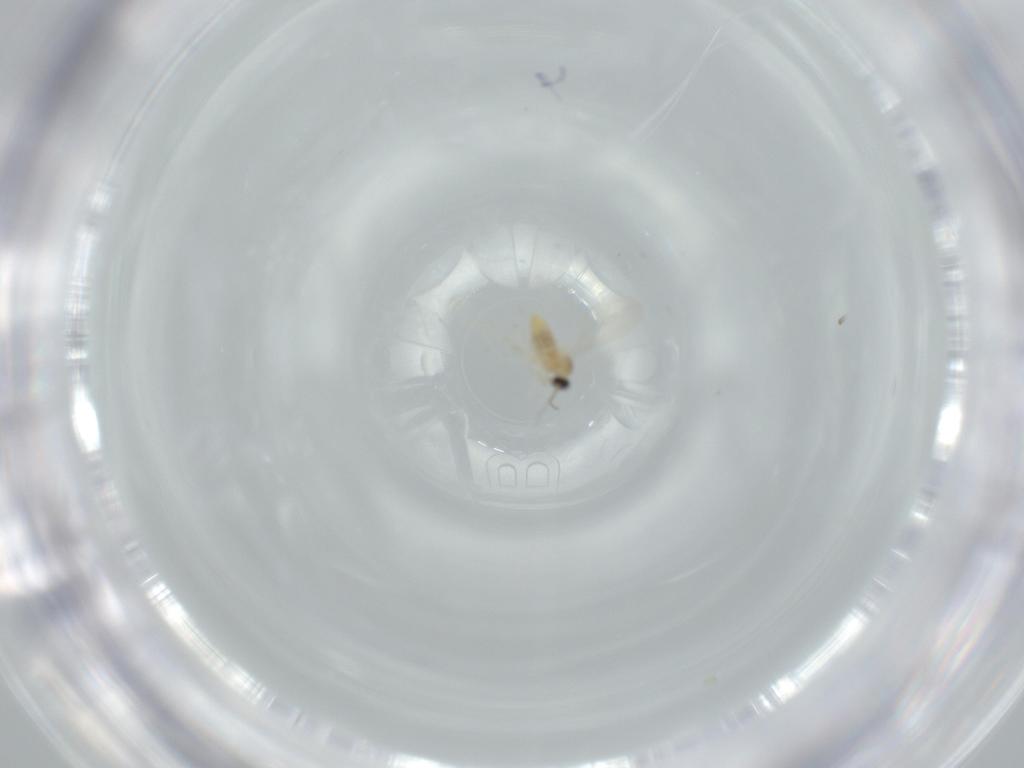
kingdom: Animalia
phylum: Arthropoda
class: Insecta
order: Diptera
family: Cecidomyiidae
